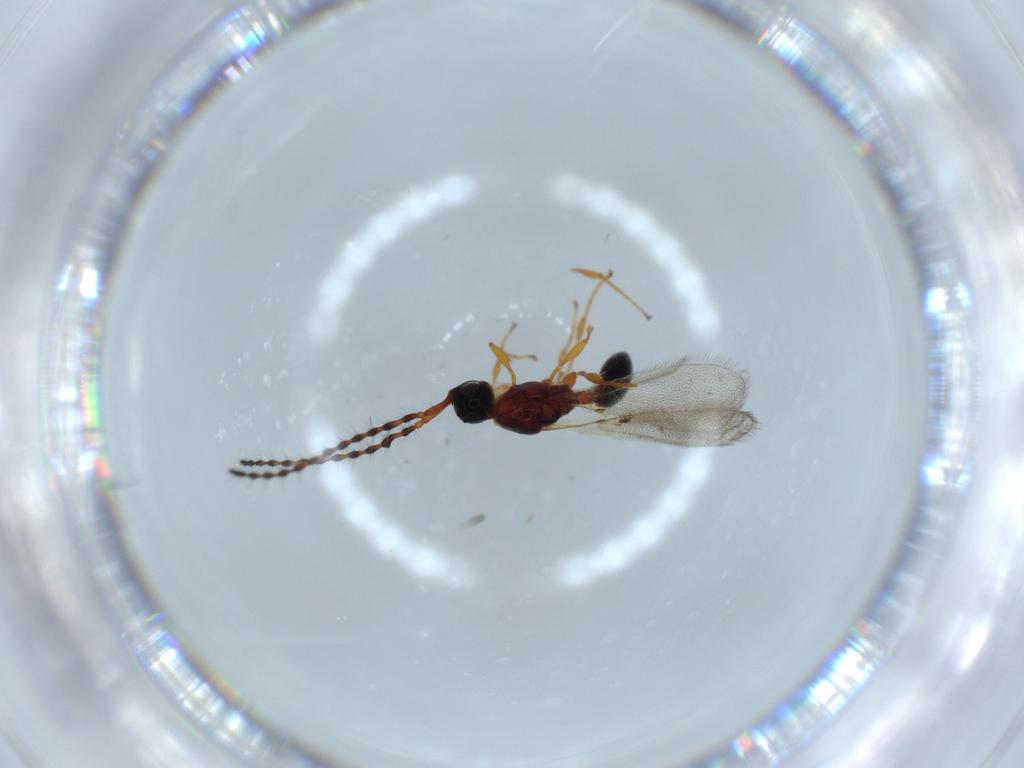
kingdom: Animalia
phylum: Arthropoda
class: Insecta
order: Hymenoptera
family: Crabronidae
